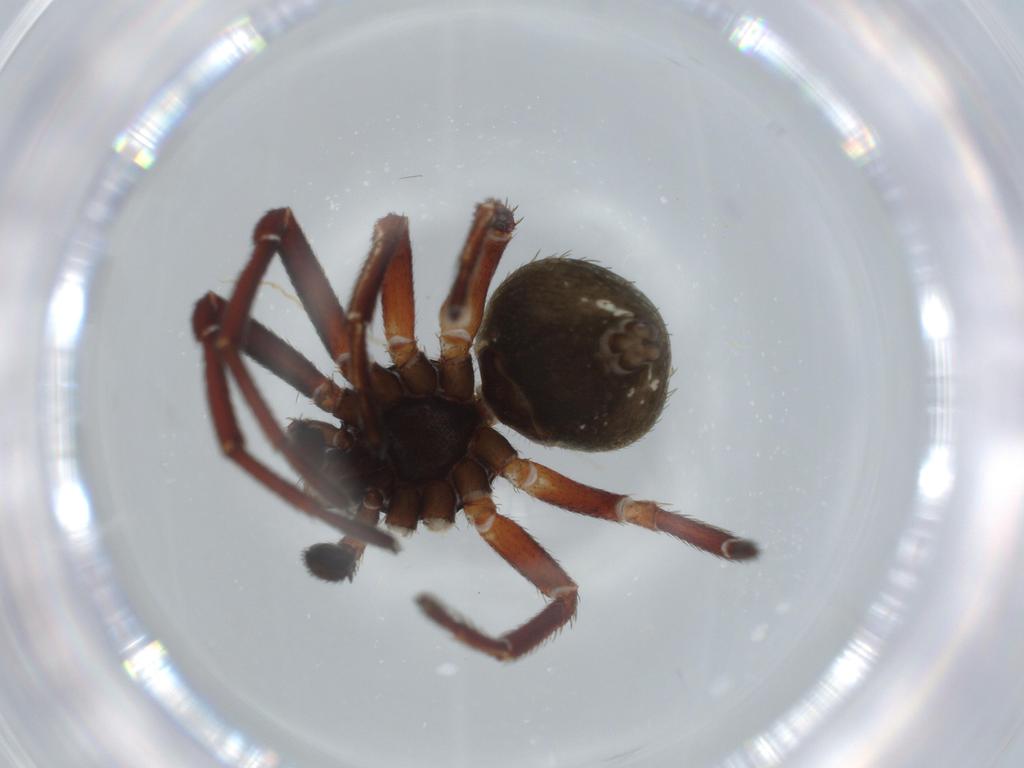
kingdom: Animalia
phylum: Arthropoda
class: Arachnida
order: Araneae
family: Thomisidae
